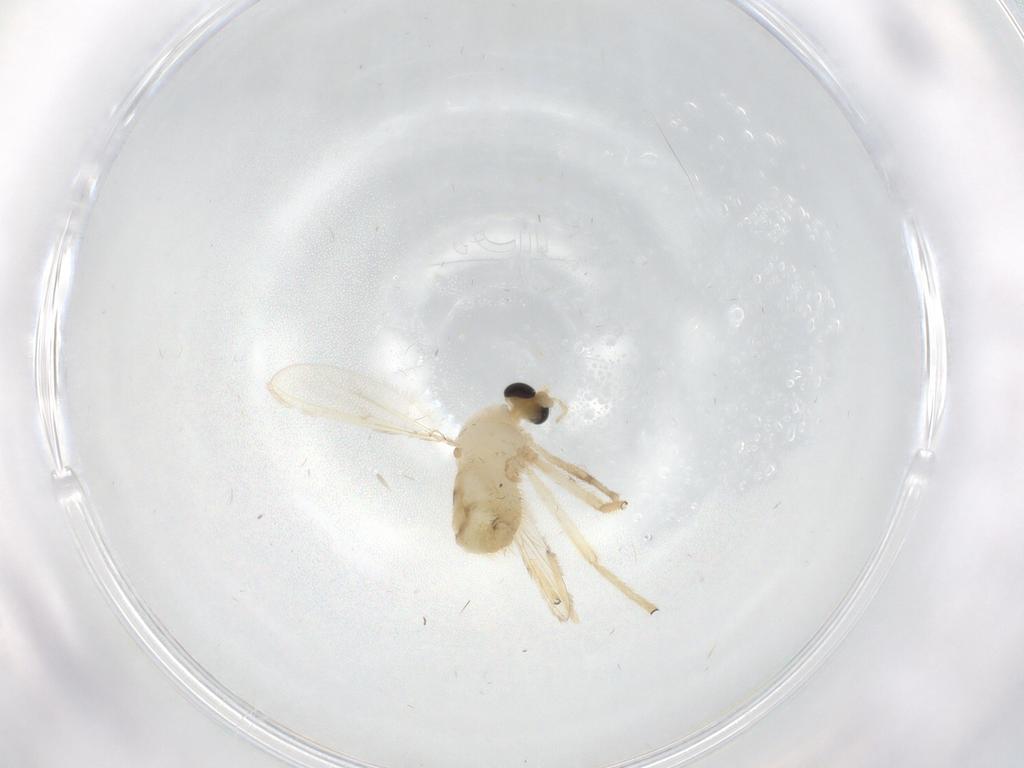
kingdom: Animalia
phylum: Arthropoda
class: Insecta
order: Diptera
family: Chironomidae
